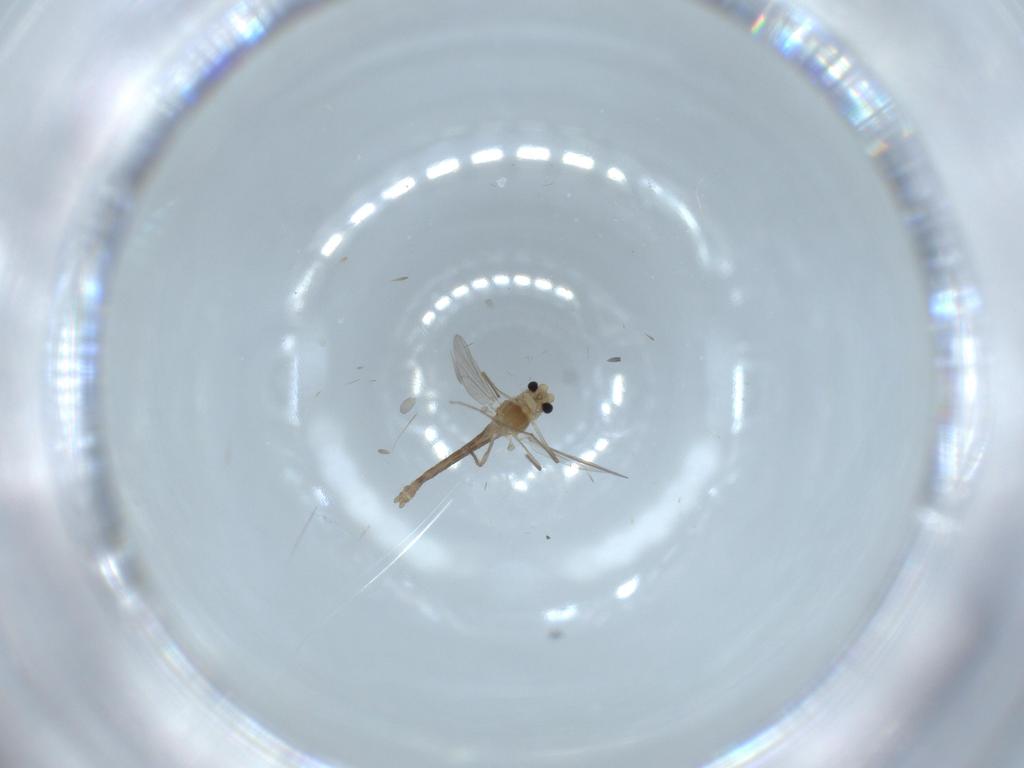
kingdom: Animalia
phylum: Arthropoda
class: Insecta
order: Diptera
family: Chironomidae
